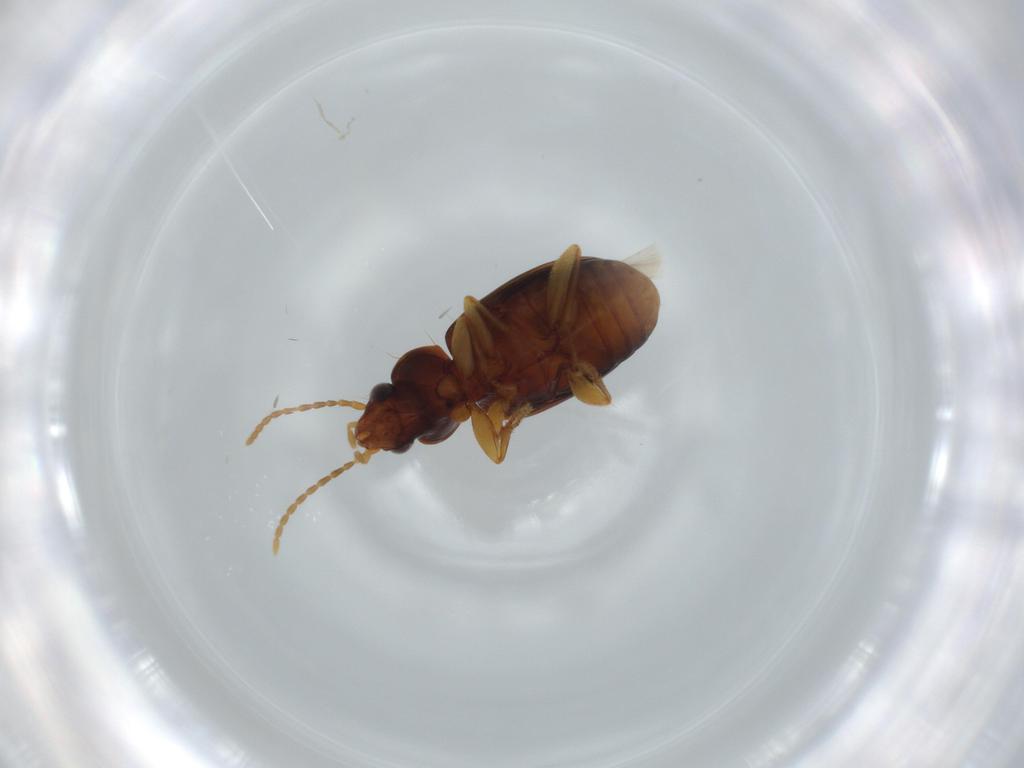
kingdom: Animalia
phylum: Arthropoda
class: Insecta
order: Coleoptera
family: Carabidae
